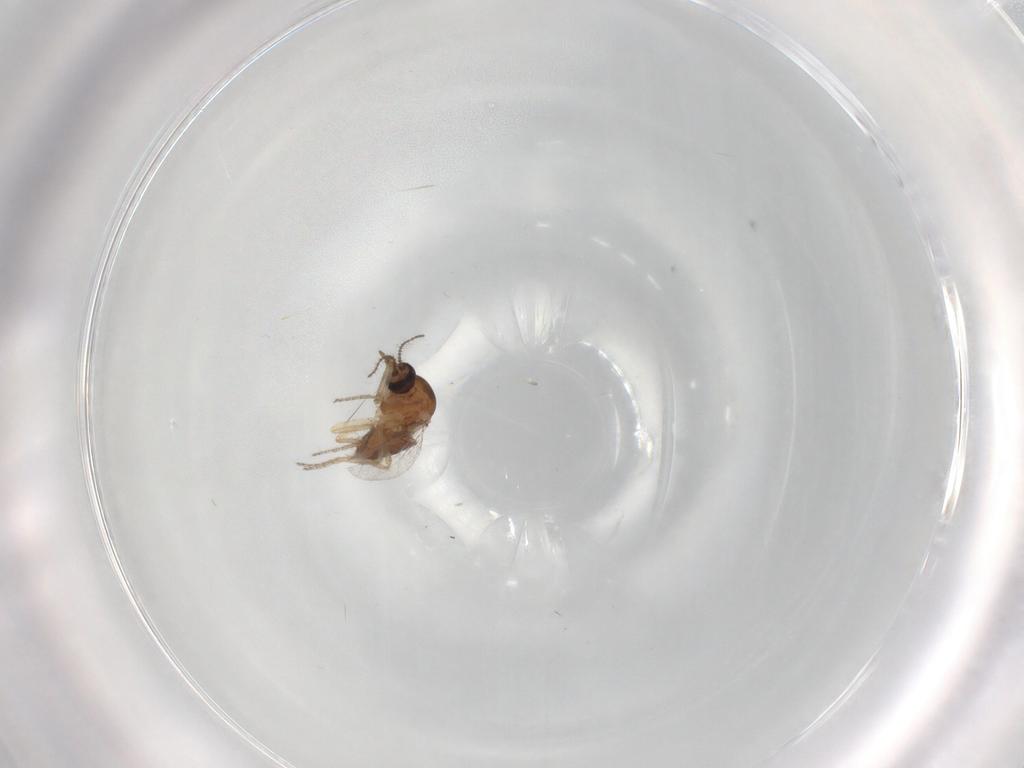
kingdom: Animalia
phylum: Arthropoda
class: Insecta
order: Diptera
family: Ceratopogonidae
